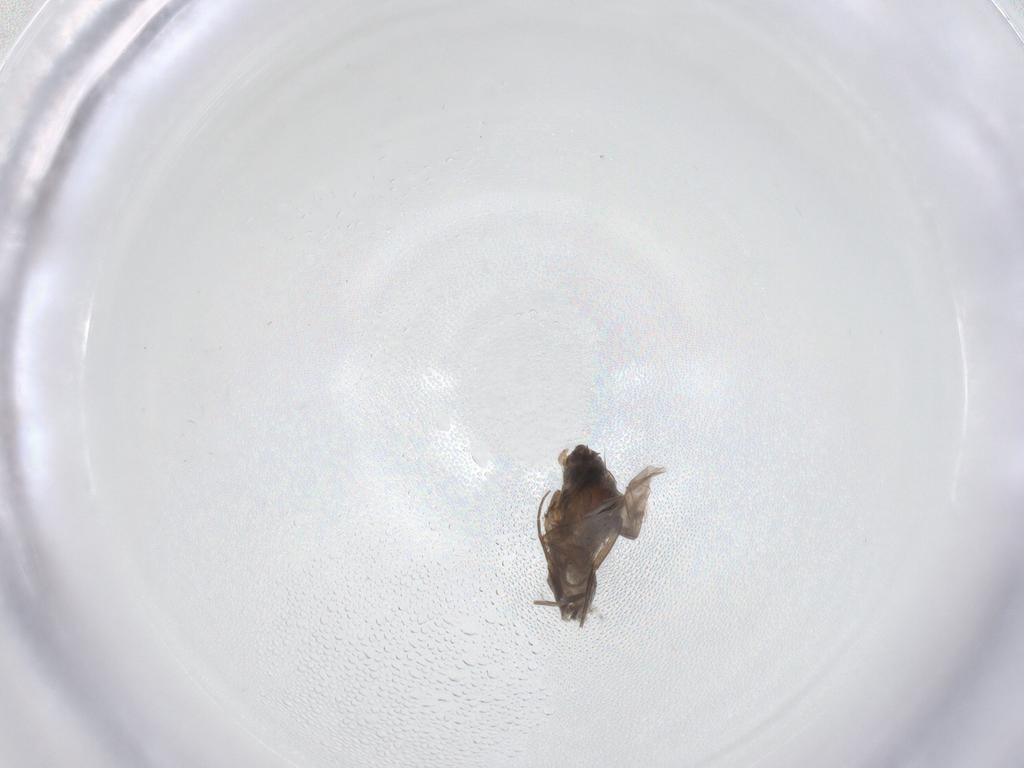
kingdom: Animalia
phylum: Arthropoda
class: Insecta
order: Diptera
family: Phoridae
